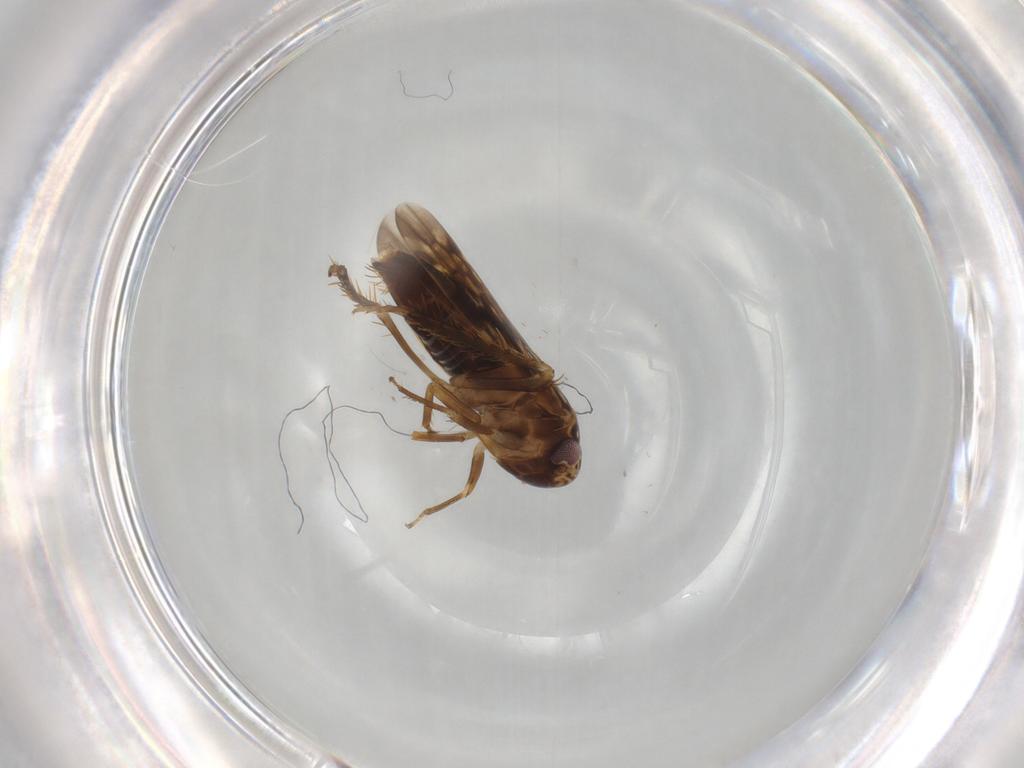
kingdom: Animalia
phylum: Arthropoda
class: Insecta
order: Hemiptera
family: Cicadellidae
